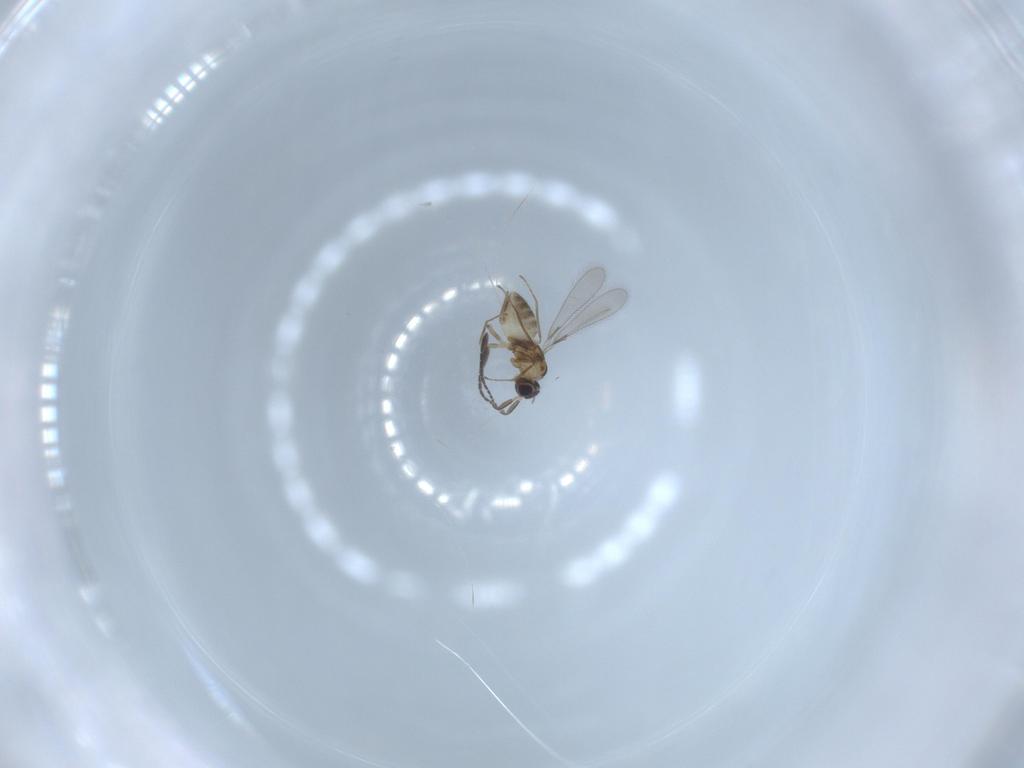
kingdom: Animalia
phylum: Arthropoda
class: Insecta
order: Hymenoptera
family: Mymaridae
